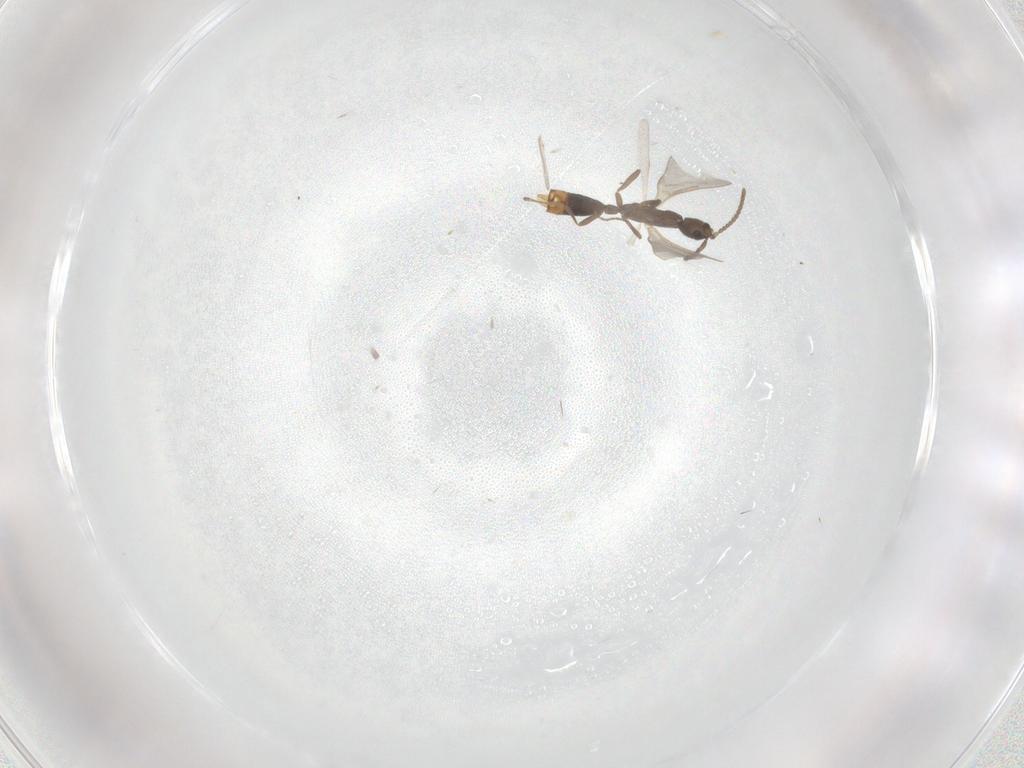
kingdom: Animalia
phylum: Arthropoda
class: Insecta
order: Hymenoptera
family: Formicidae
